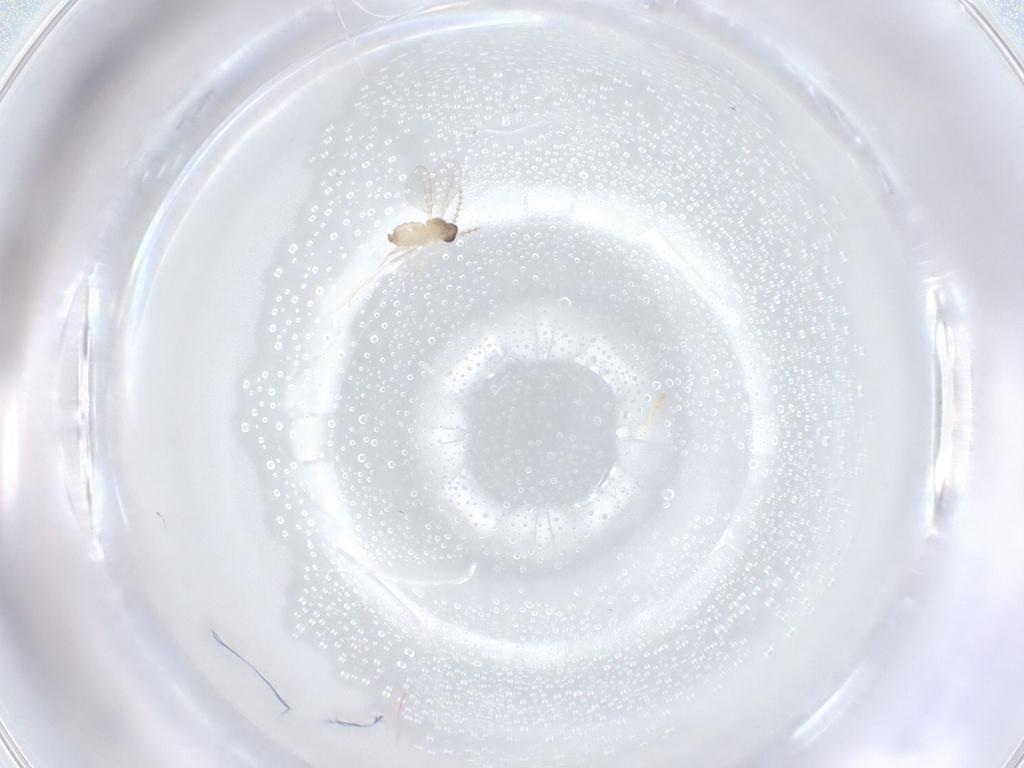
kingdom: Animalia
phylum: Arthropoda
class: Insecta
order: Diptera
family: Cecidomyiidae
